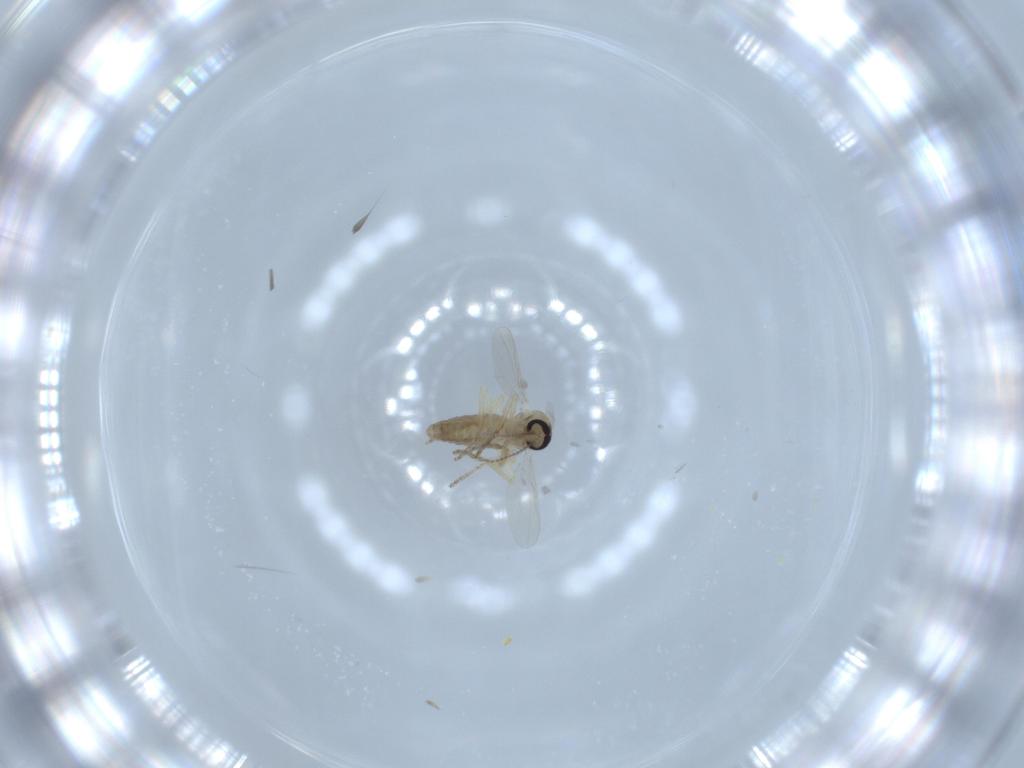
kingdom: Animalia
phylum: Arthropoda
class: Insecta
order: Diptera
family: Ceratopogonidae
